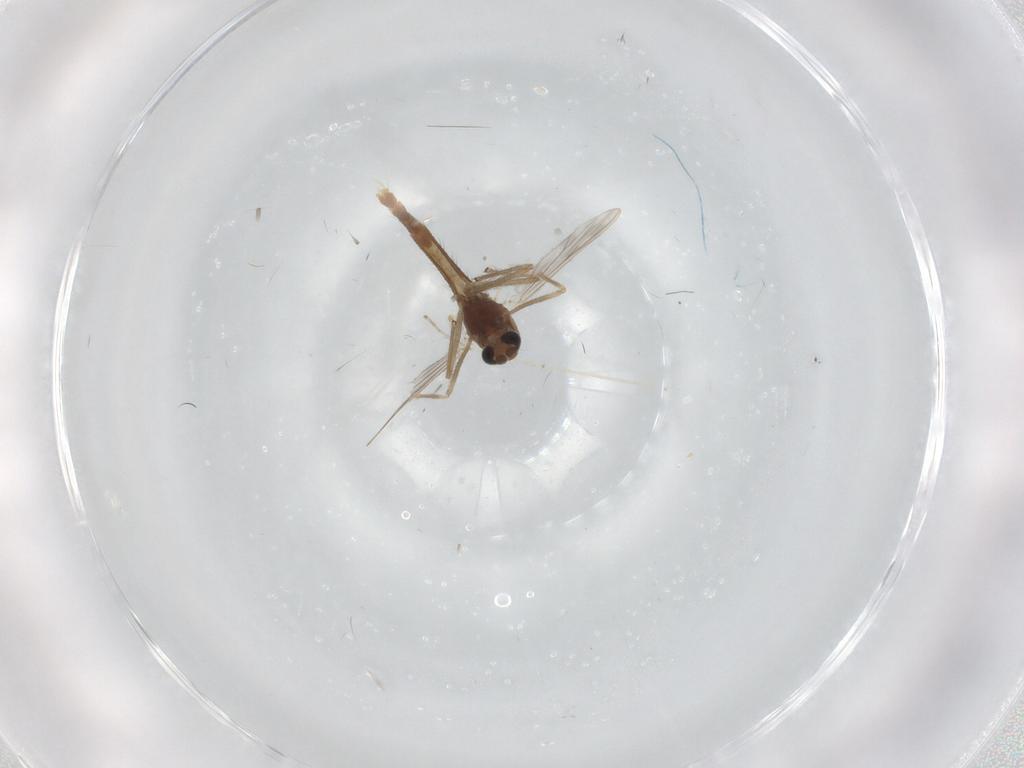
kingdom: Animalia
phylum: Arthropoda
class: Insecta
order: Diptera
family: Chironomidae
